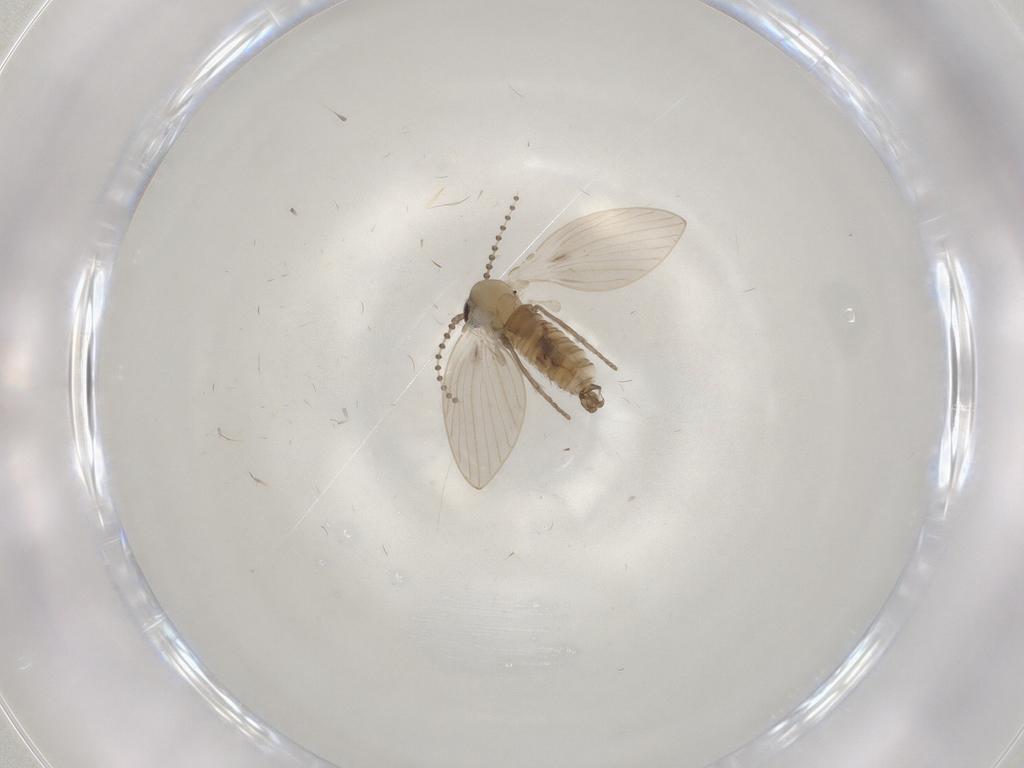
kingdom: Animalia
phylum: Arthropoda
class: Insecta
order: Diptera
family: Psychodidae
